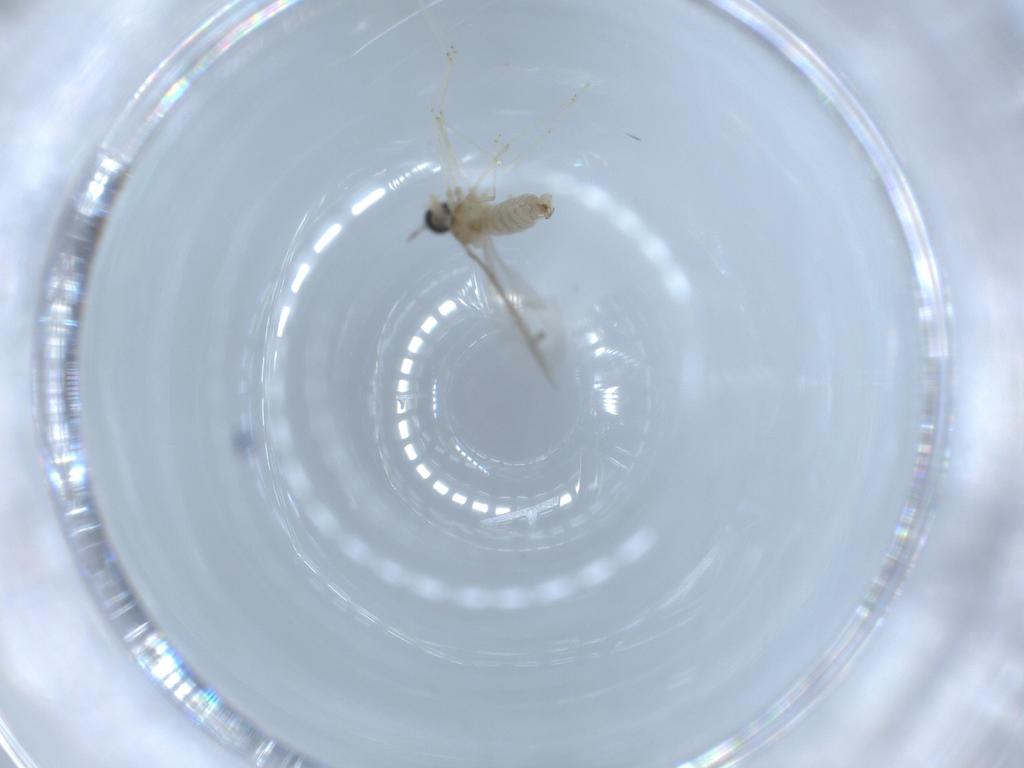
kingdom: Animalia
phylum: Arthropoda
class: Insecta
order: Diptera
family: Cecidomyiidae
